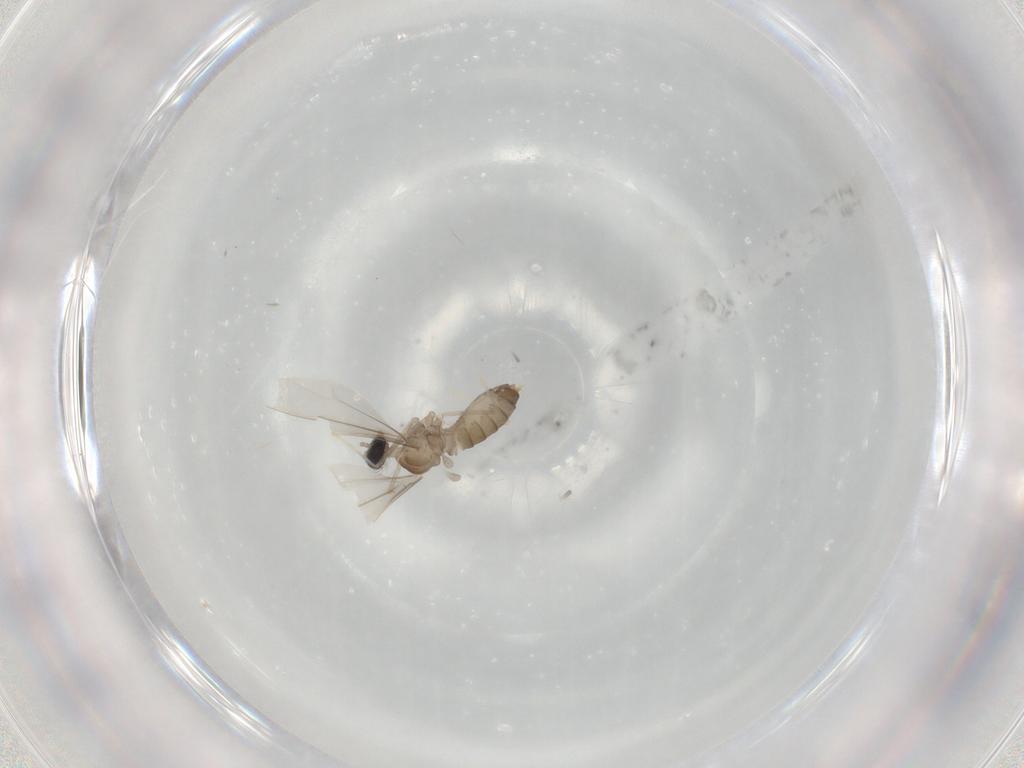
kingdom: Animalia
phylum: Arthropoda
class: Insecta
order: Diptera
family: Cecidomyiidae
